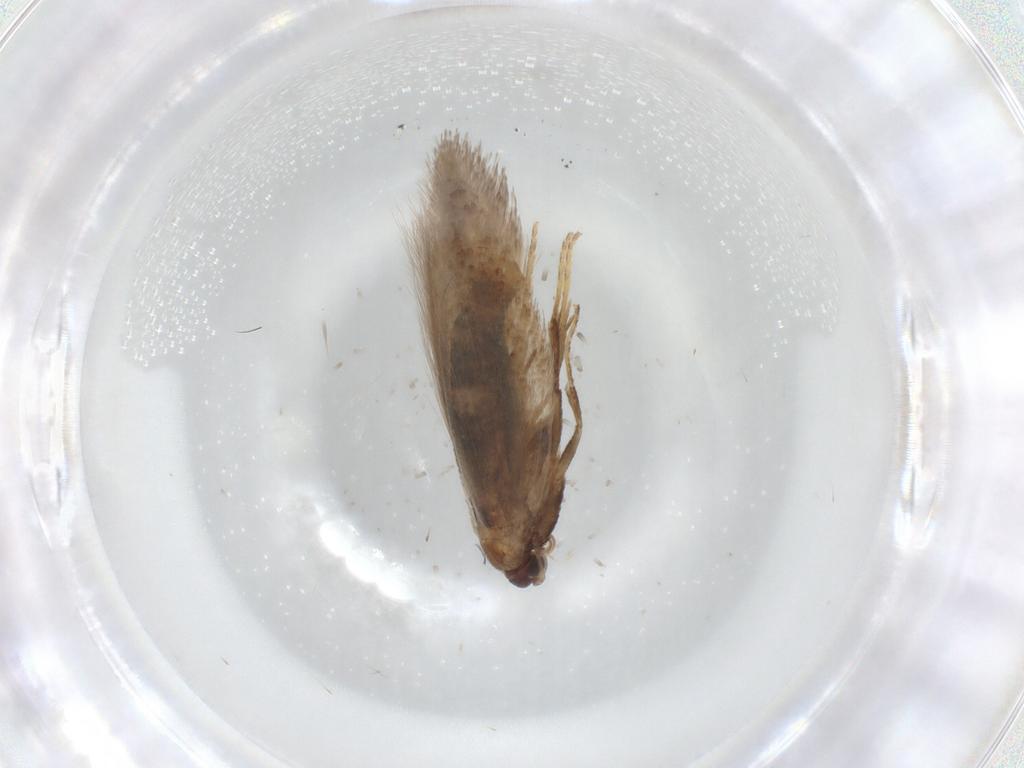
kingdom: Animalia
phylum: Arthropoda
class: Insecta
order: Lepidoptera
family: Nepticulidae
